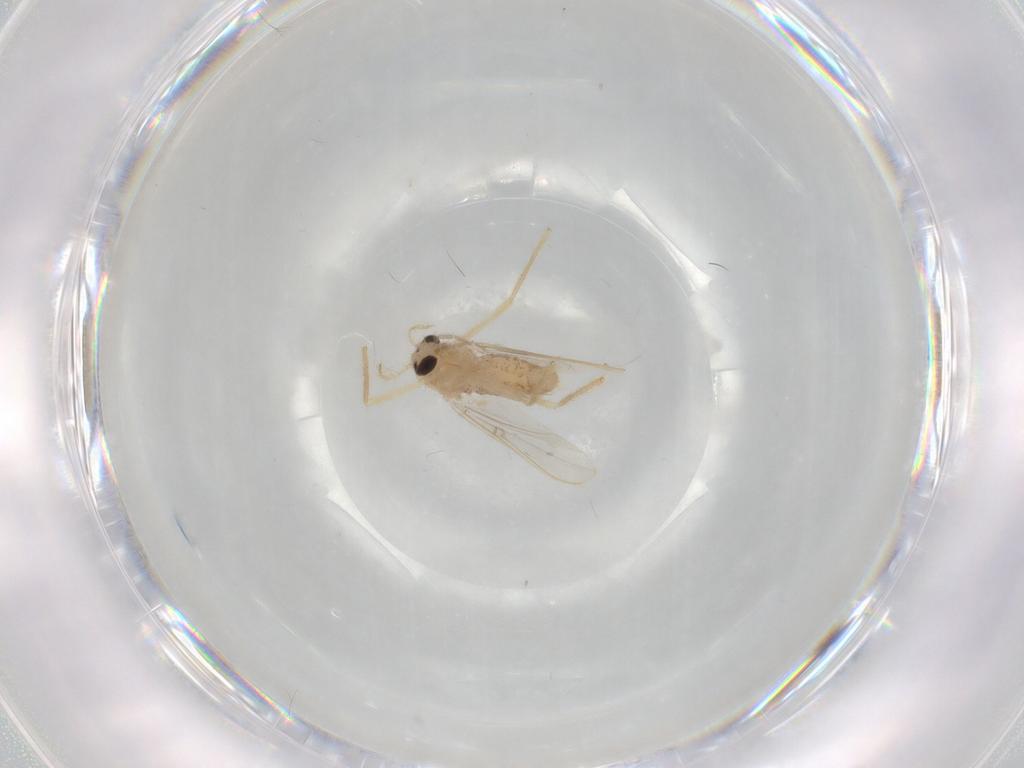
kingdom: Animalia
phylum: Arthropoda
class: Insecta
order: Diptera
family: Chironomidae
